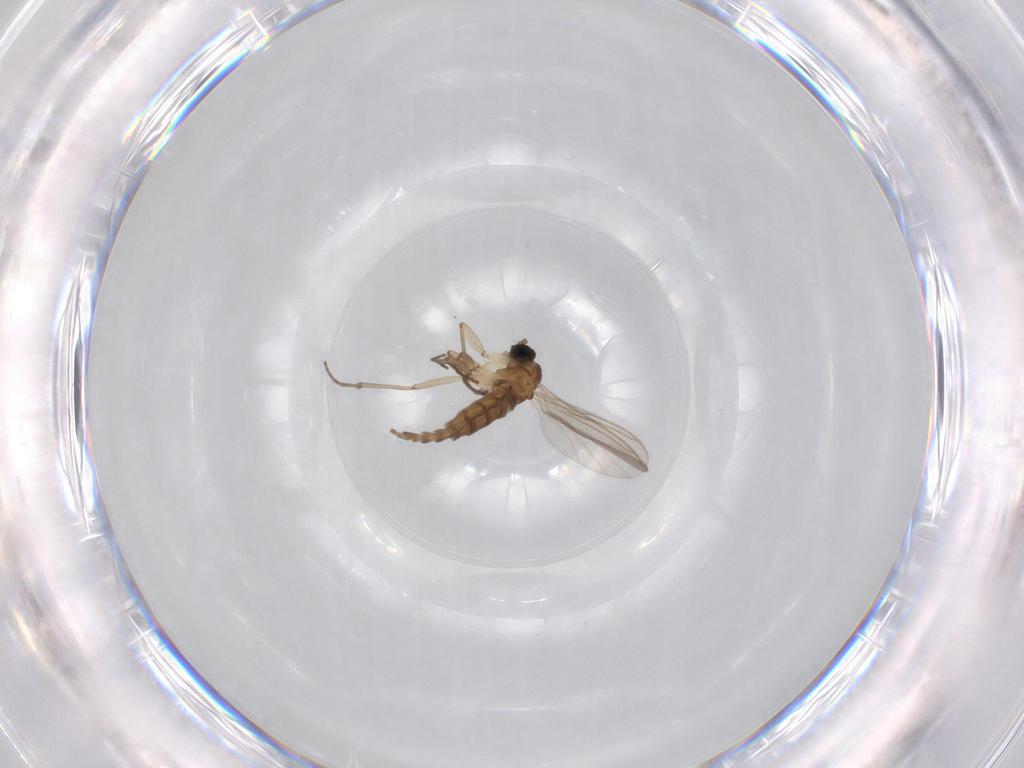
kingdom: Animalia
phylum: Arthropoda
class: Insecta
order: Diptera
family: Sciaridae
